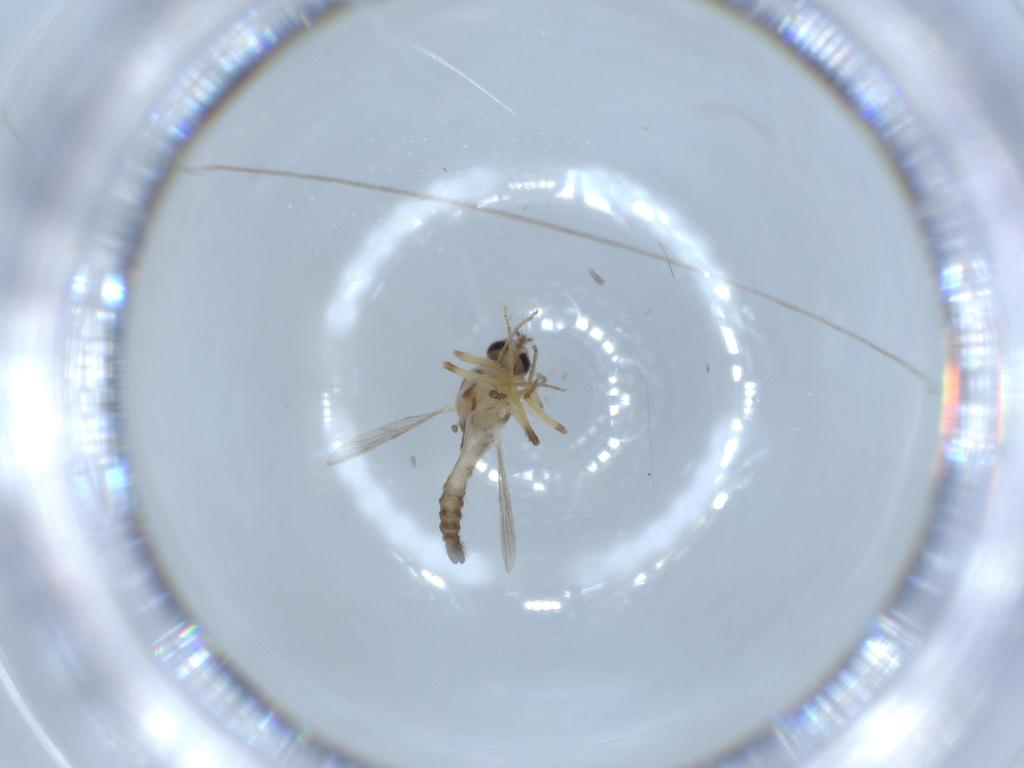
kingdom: Animalia
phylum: Arthropoda
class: Insecta
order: Diptera
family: Ceratopogonidae
